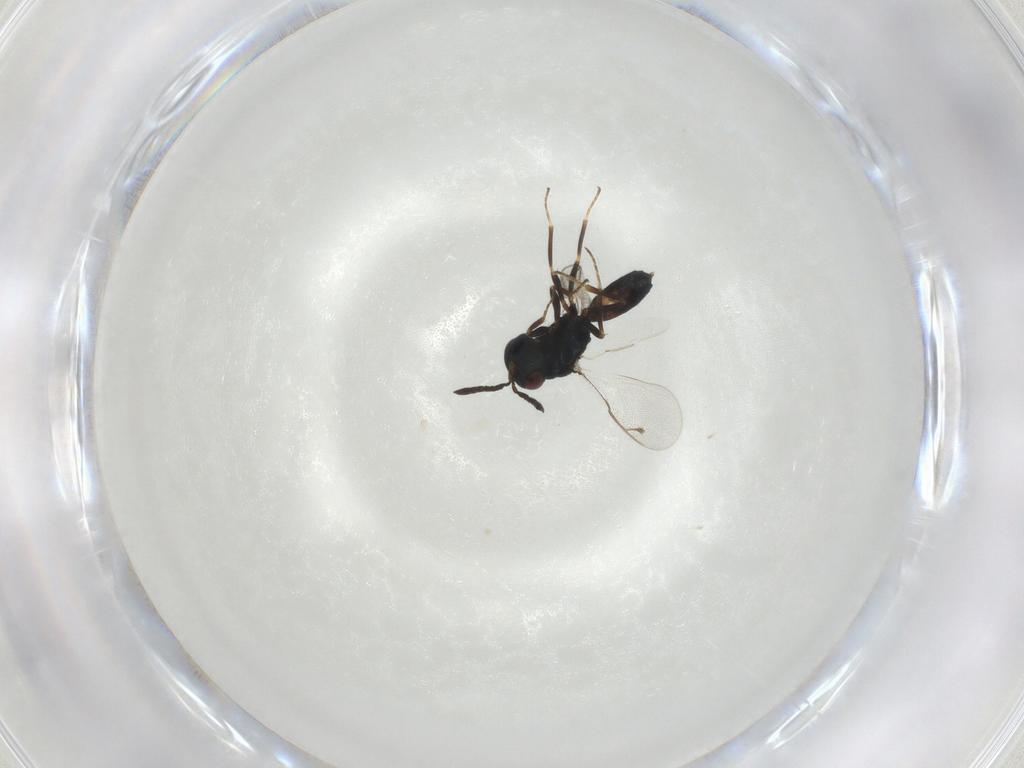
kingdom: Animalia
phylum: Arthropoda
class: Insecta
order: Hymenoptera
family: Pteromalidae
